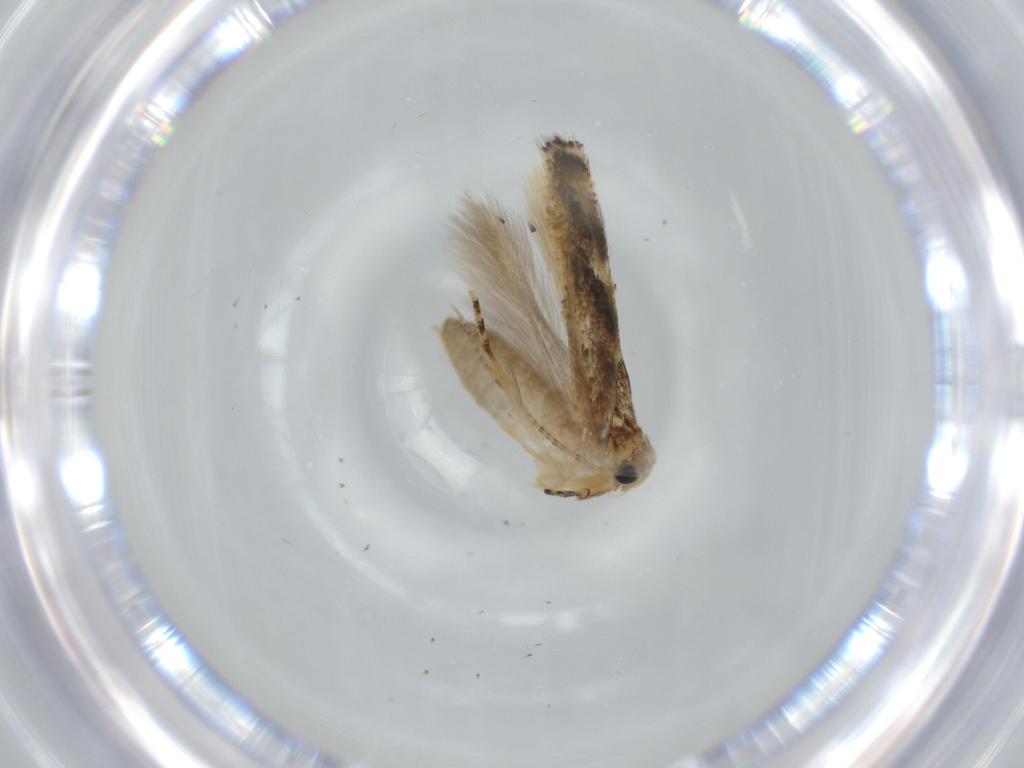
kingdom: Animalia
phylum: Arthropoda
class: Insecta
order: Lepidoptera
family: Bucculatricidae
